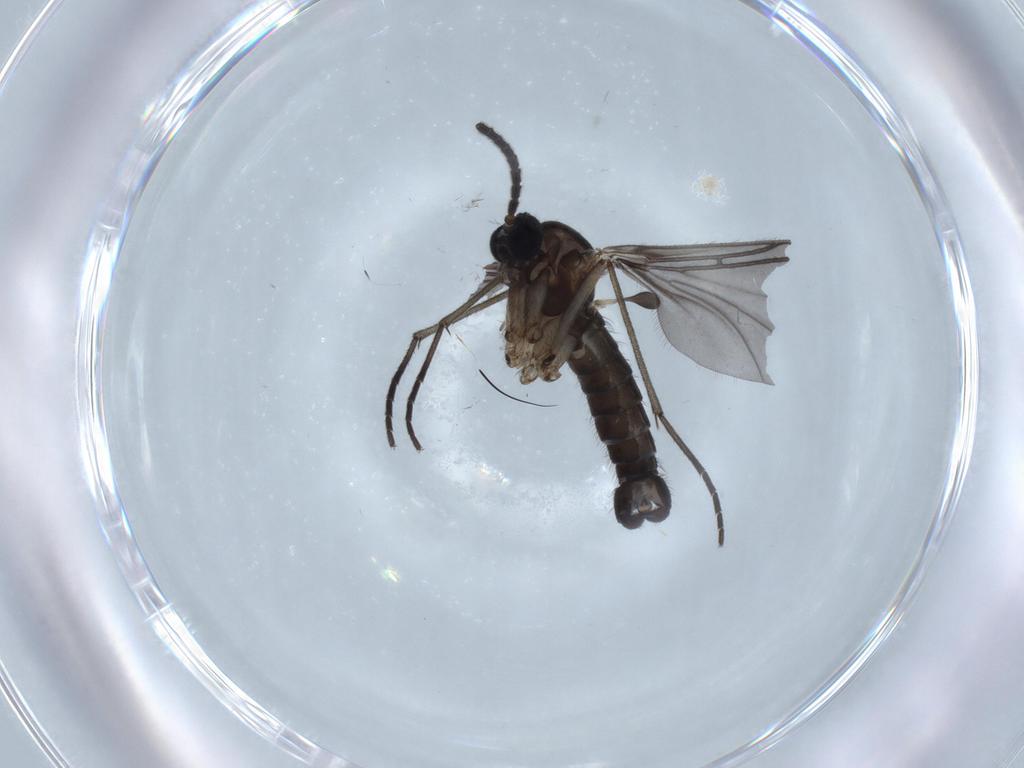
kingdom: Animalia
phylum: Arthropoda
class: Insecta
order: Diptera
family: Sciaridae
